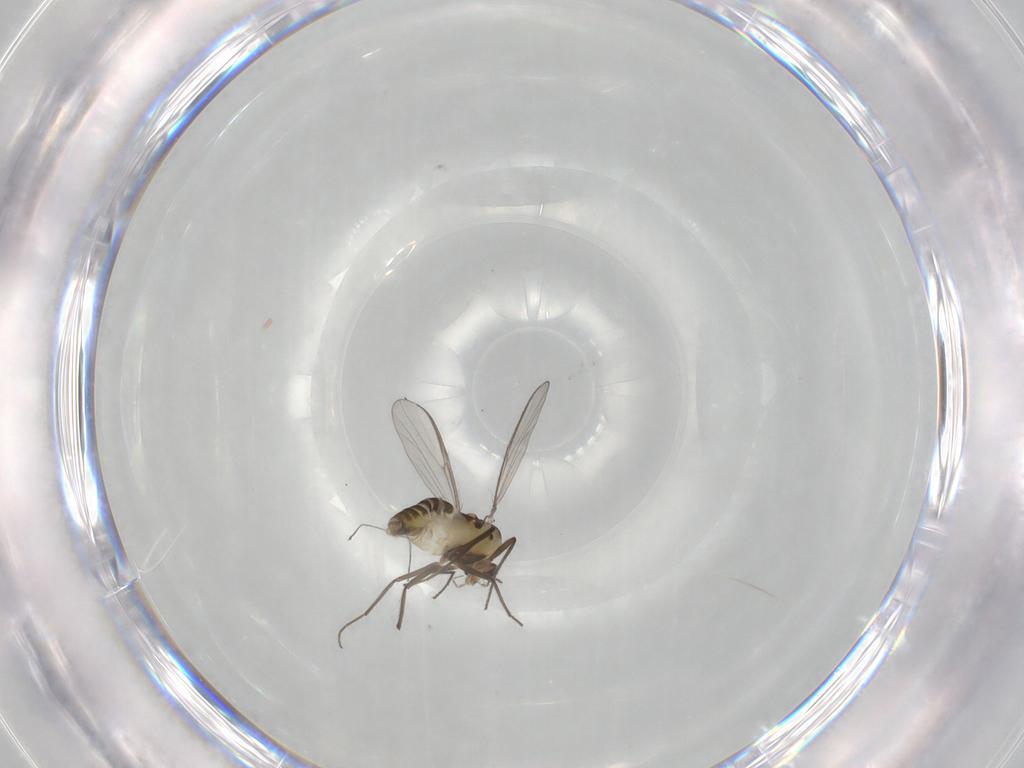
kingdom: Animalia
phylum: Arthropoda
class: Insecta
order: Diptera
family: Chironomidae
